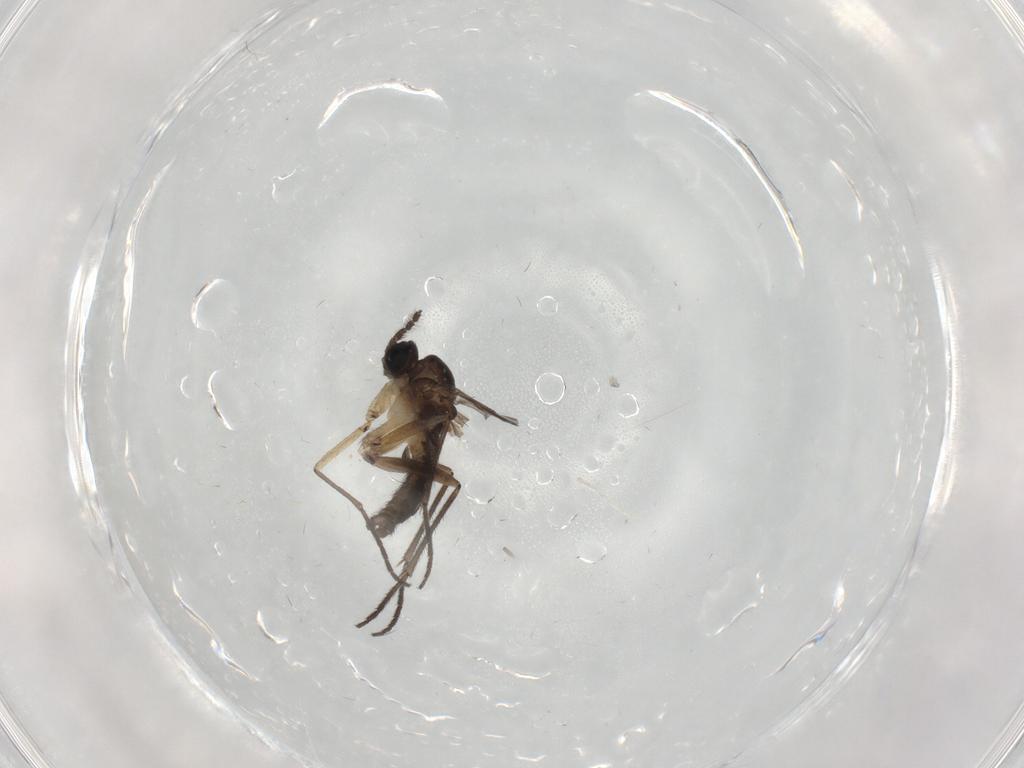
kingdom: Animalia
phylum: Arthropoda
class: Insecta
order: Diptera
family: Sciaridae
